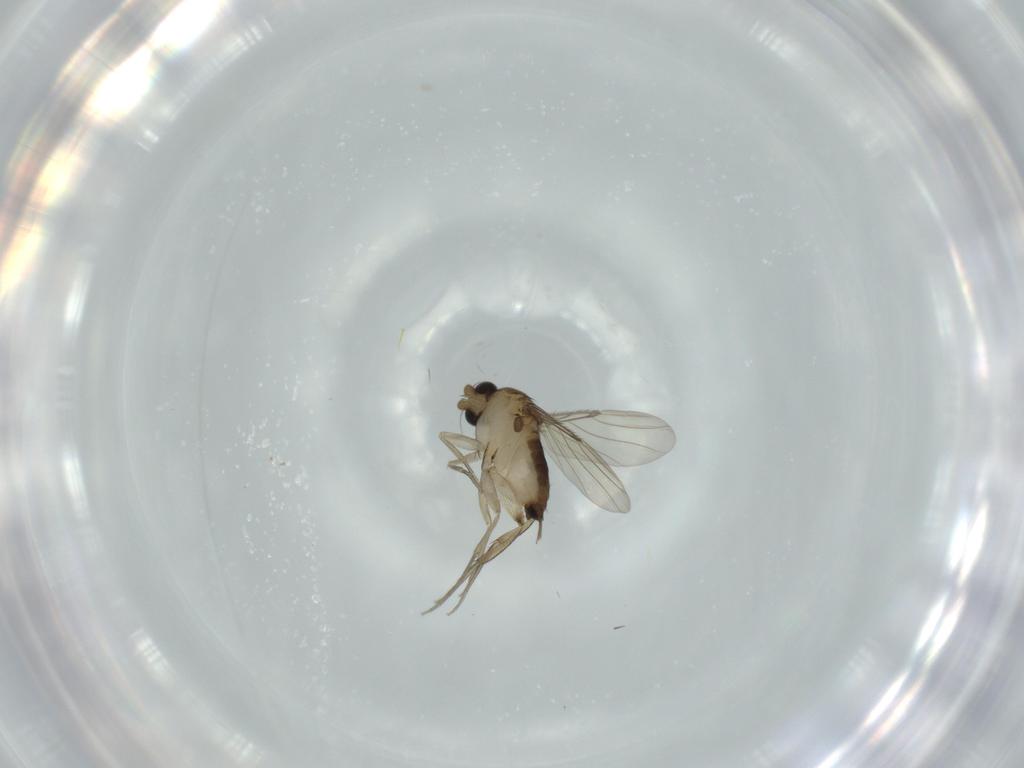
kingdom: Animalia
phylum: Arthropoda
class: Insecta
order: Diptera
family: Phoridae
